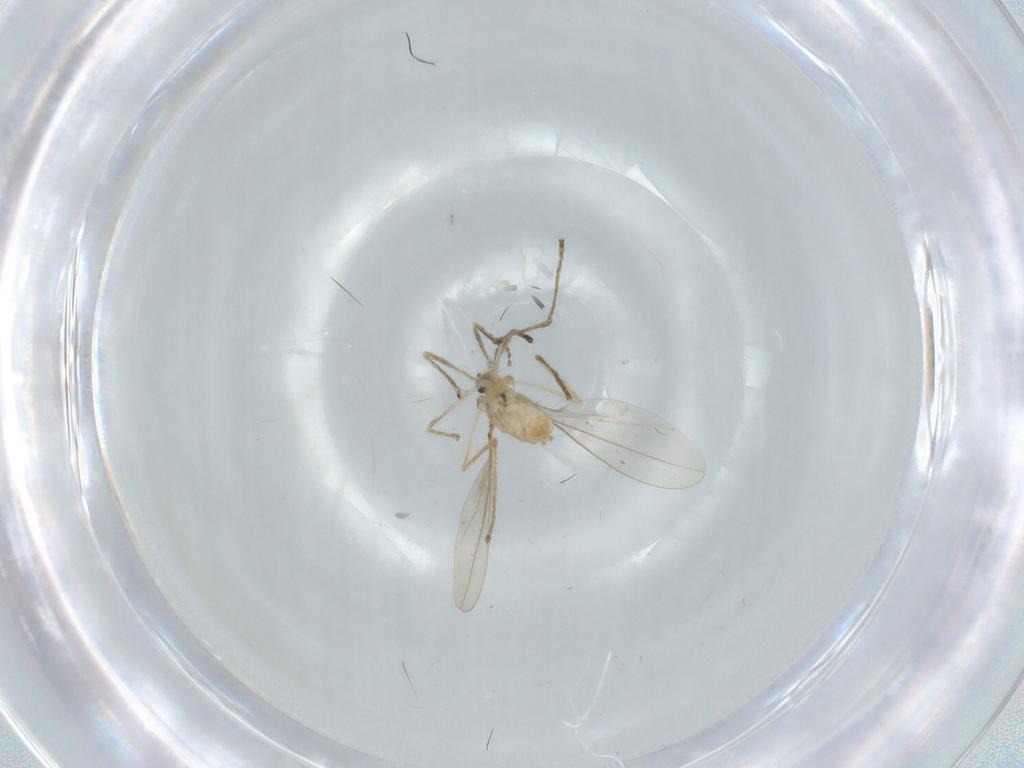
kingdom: Animalia
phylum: Arthropoda
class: Insecta
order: Diptera
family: Cecidomyiidae
